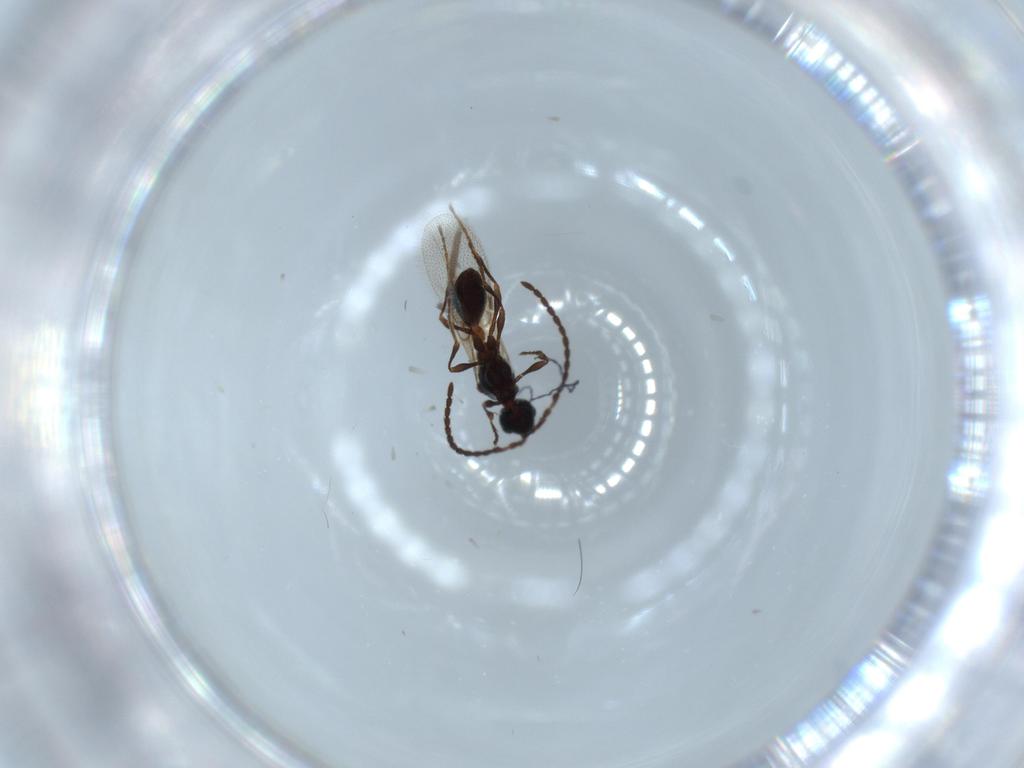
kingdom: Animalia
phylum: Arthropoda
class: Insecta
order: Hymenoptera
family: Diapriidae
